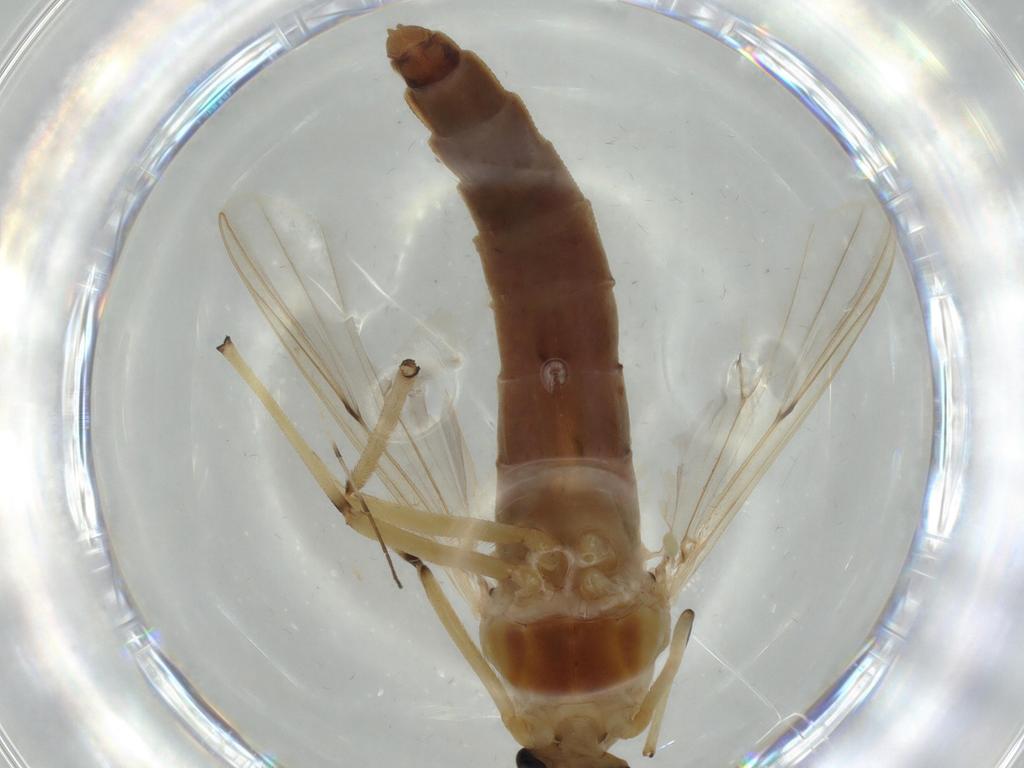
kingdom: Animalia
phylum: Arthropoda
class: Insecta
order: Diptera
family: Chironomidae
